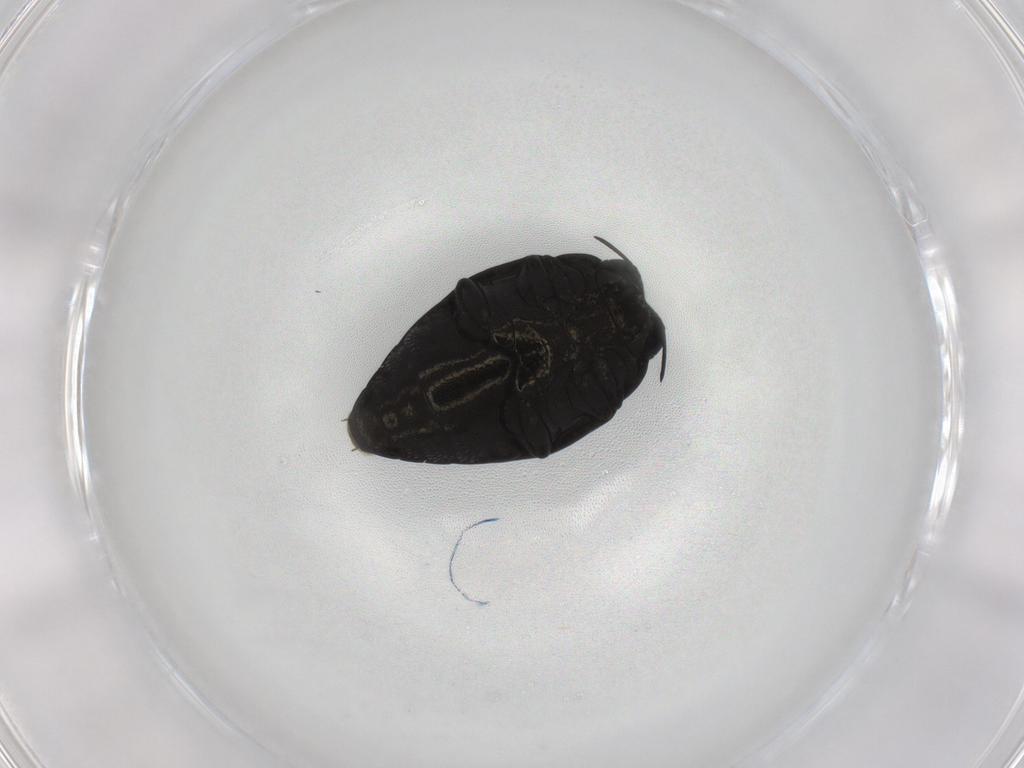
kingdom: Animalia
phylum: Arthropoda
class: Insecta
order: Coleoptera
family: Buprestidae
